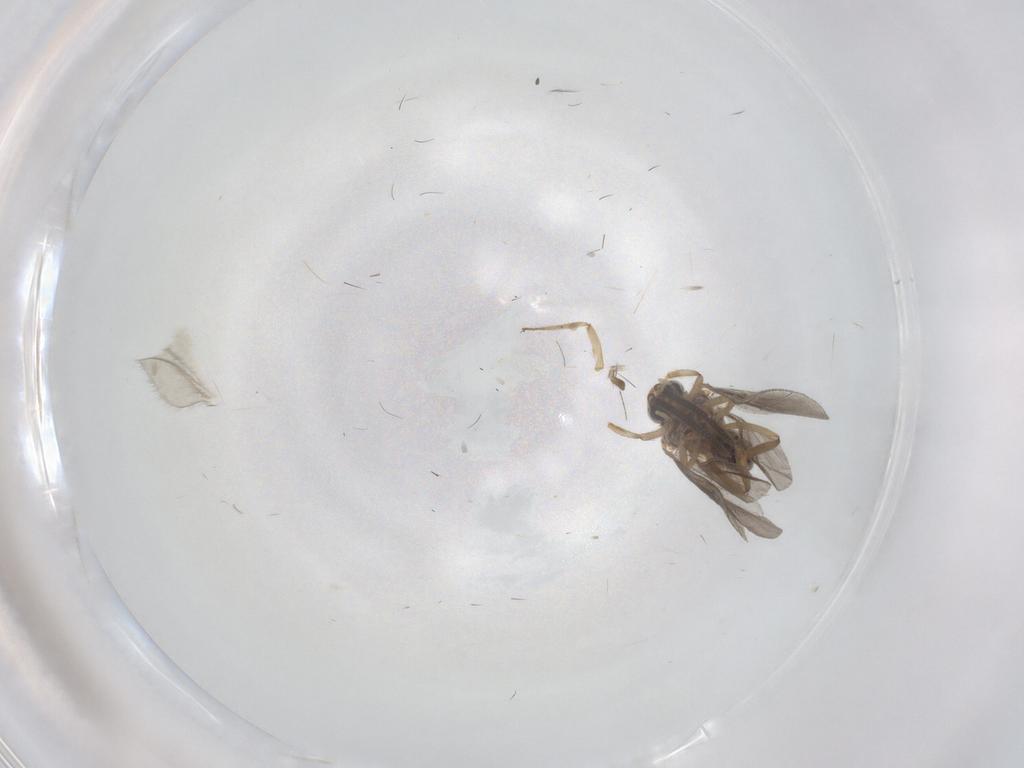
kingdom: Animalia
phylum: Arthropoda
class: Insecta
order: Neuroptera
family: Coniopterygidae
